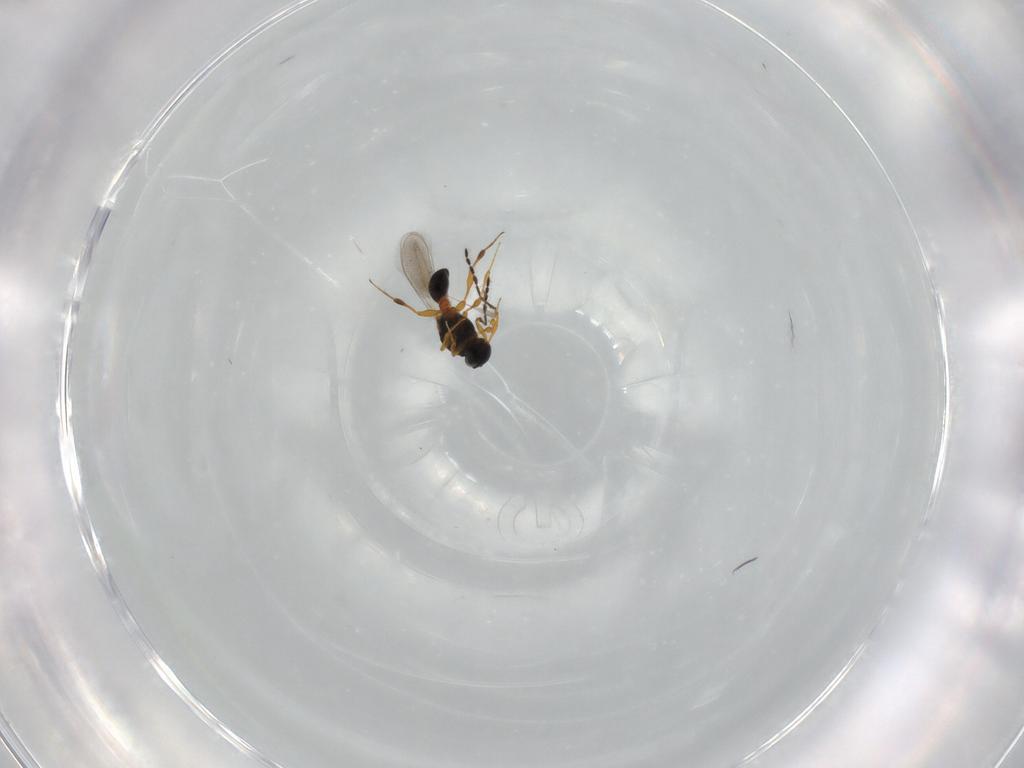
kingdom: Animalia
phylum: Arthropoda
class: Insecta
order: Hymenoptera
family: Platygastridae
